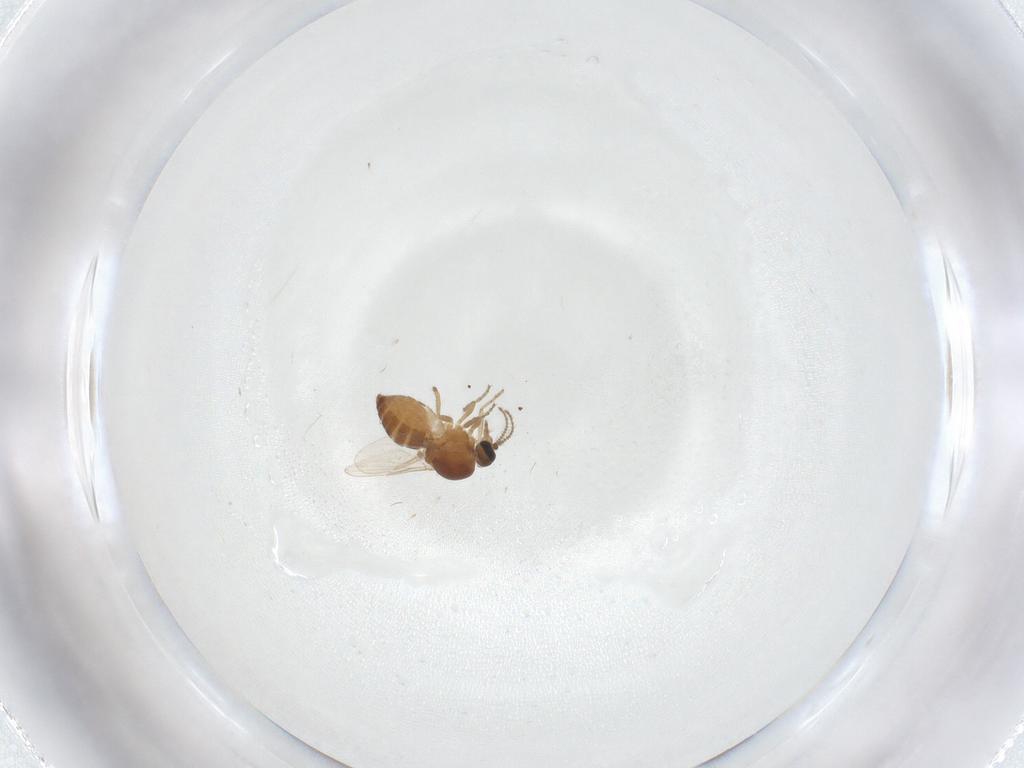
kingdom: Animalia
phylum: Arthropoda
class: Insecta
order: Diptera
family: Ceratopogonidae
